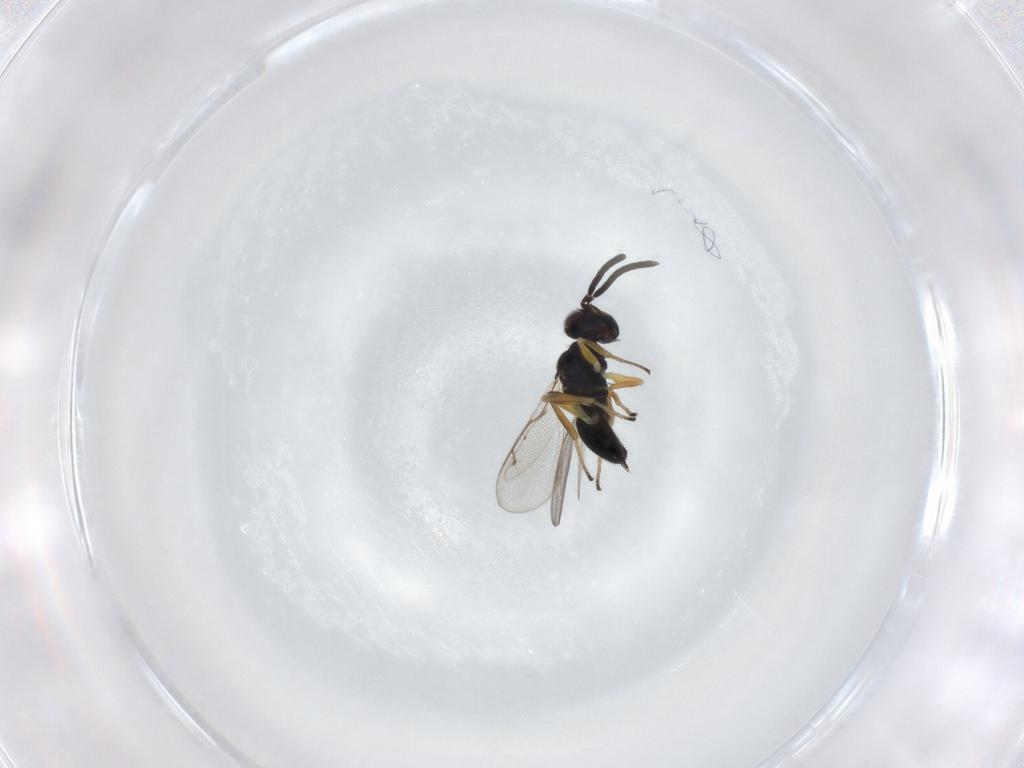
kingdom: Animalia
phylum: Arthropoda
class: Insecta
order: Hymenoptera
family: Eupelmidae
